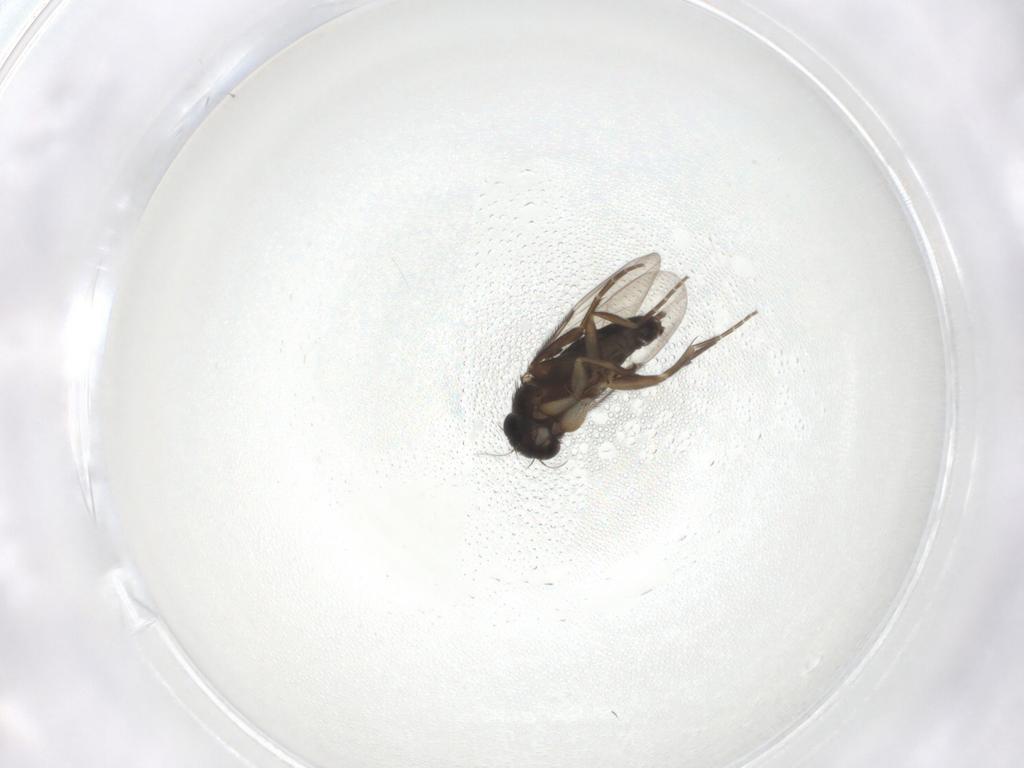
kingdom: Animalia
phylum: Arthropoda
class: Insecta
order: Diptera
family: Phoridae
